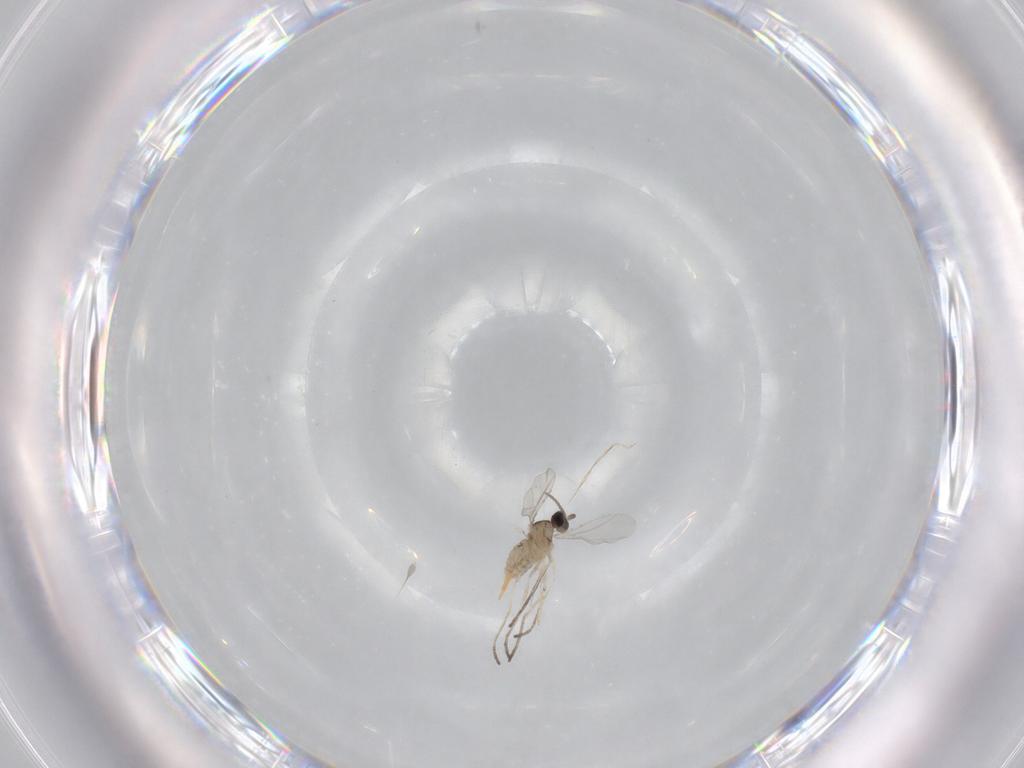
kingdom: Animalia
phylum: Arthropoda
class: Insecta
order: Diptera
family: Cecidomyiidae
